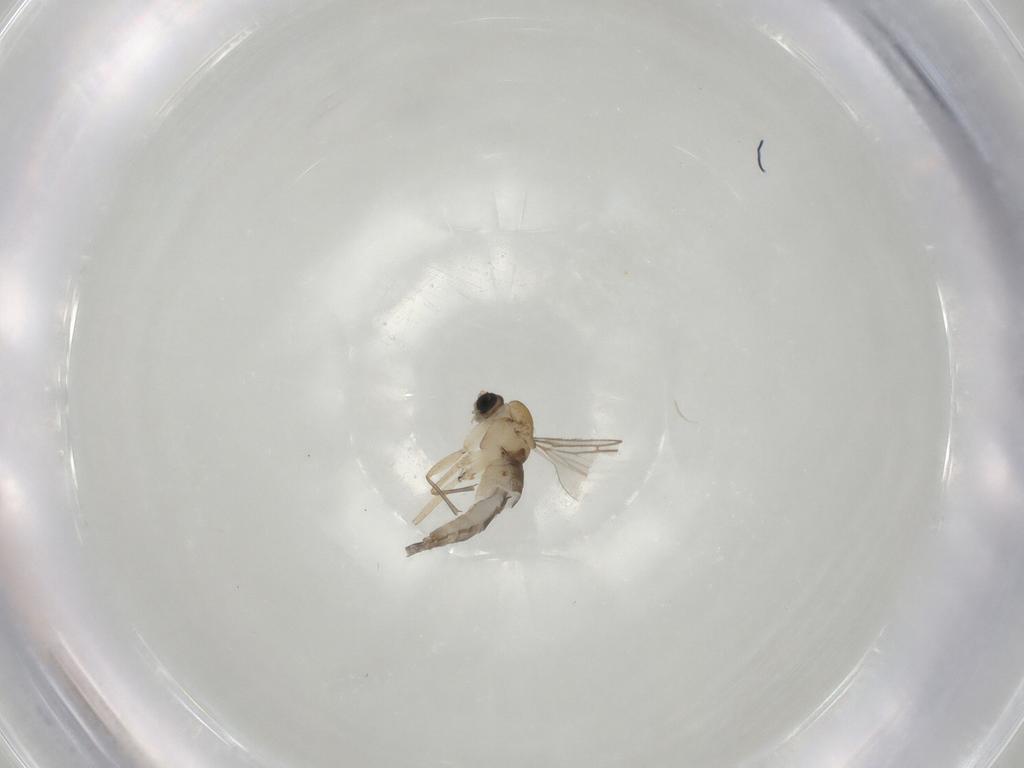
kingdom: Animalia
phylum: Arthropoda
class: Insecta
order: Diptera
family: Sciaridae
